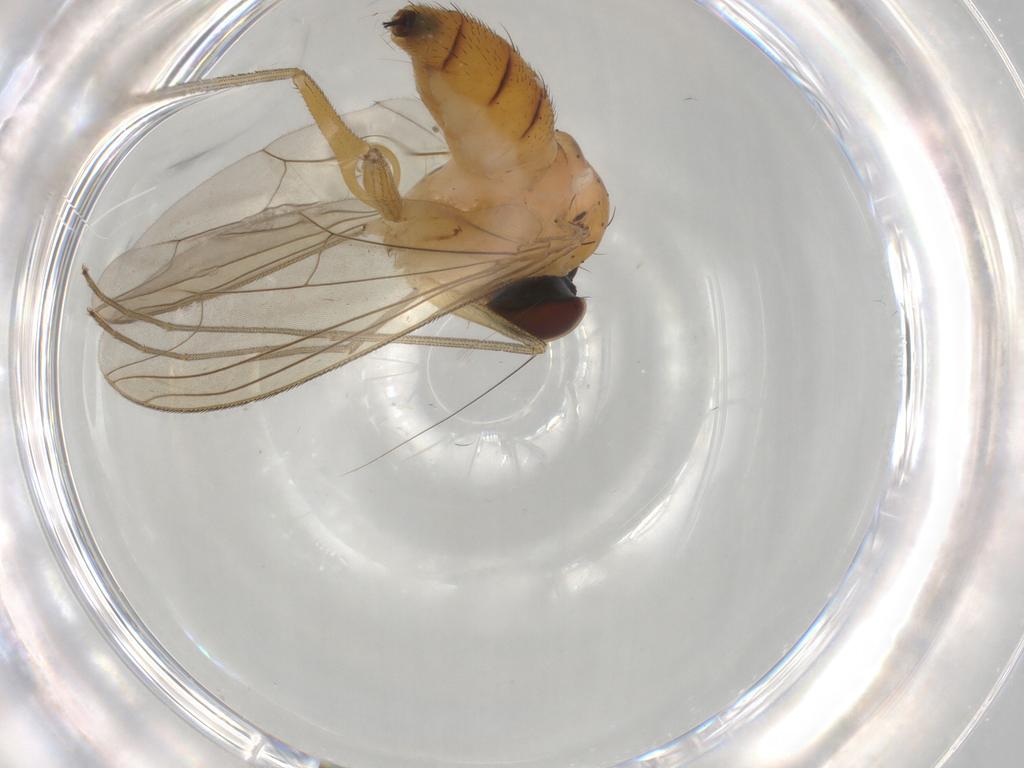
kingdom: Animalia
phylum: Arthropoda
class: Insecta
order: Diptera
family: Dolichopodidae
